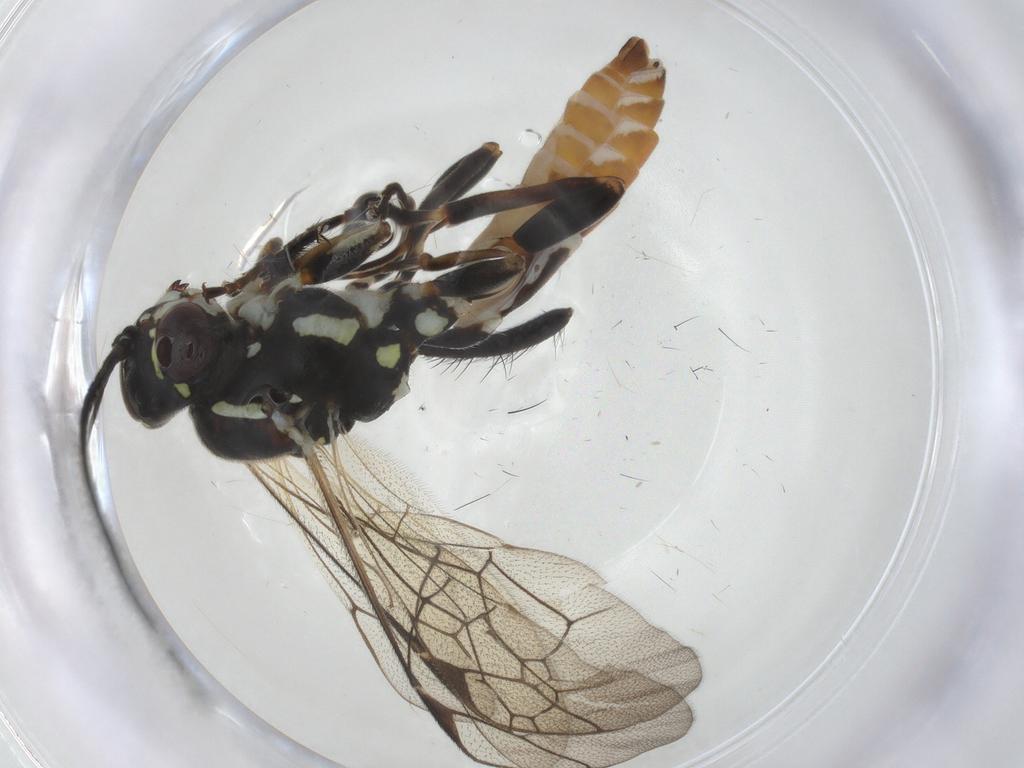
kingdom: Animalia
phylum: Arthropoda
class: Insecta
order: Hymenoptera
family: Ichneumonidae
